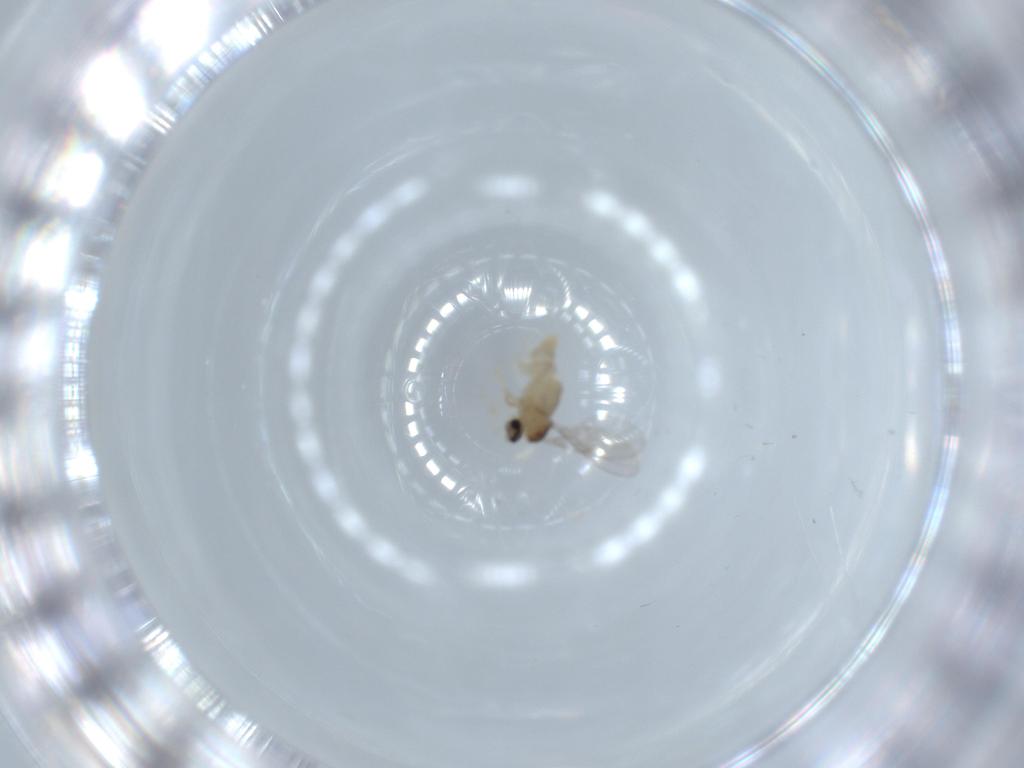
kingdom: Animalia
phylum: Arthropoda
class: Insecta
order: Diptera
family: Cecidomyiidae
